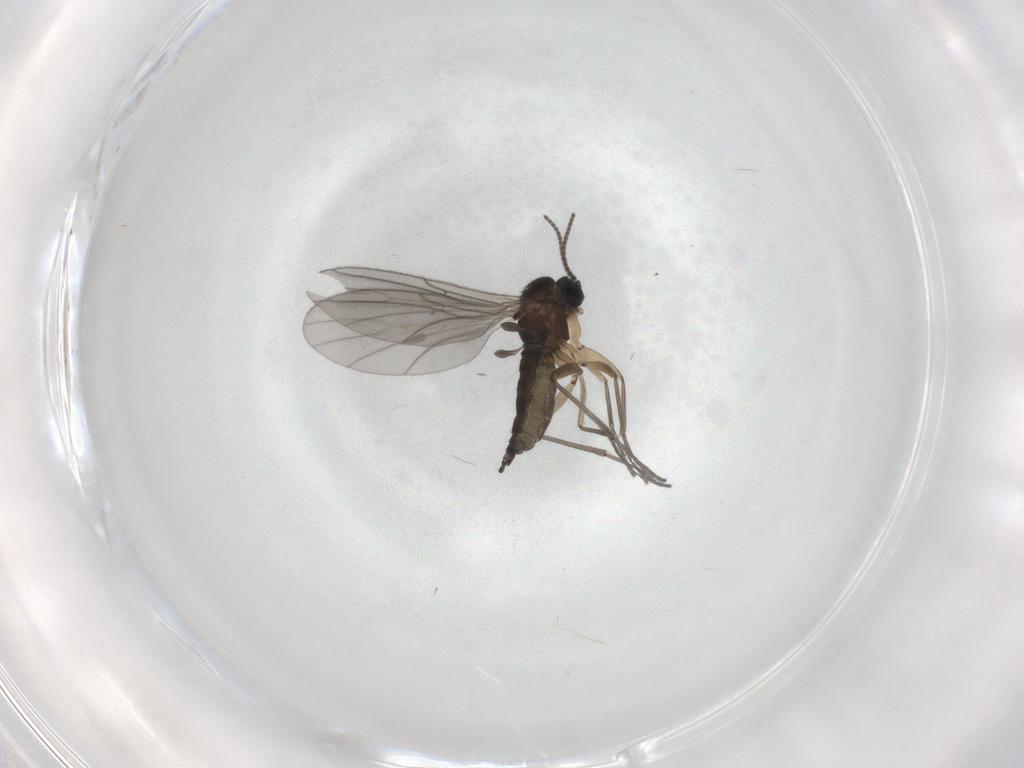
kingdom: Animalia
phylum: Arthropoda
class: Insecta
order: Diptera
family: Sciaridae
